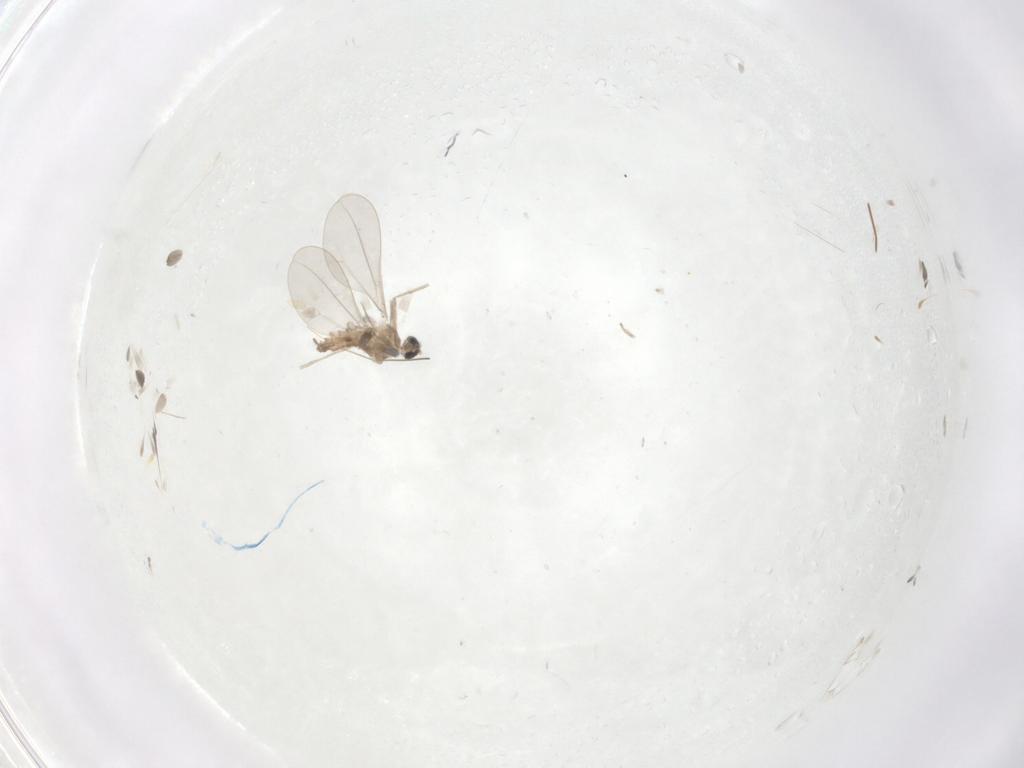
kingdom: Animalia
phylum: Arthropoda
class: Insecta
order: Diptera
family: Cecidomyiidae
